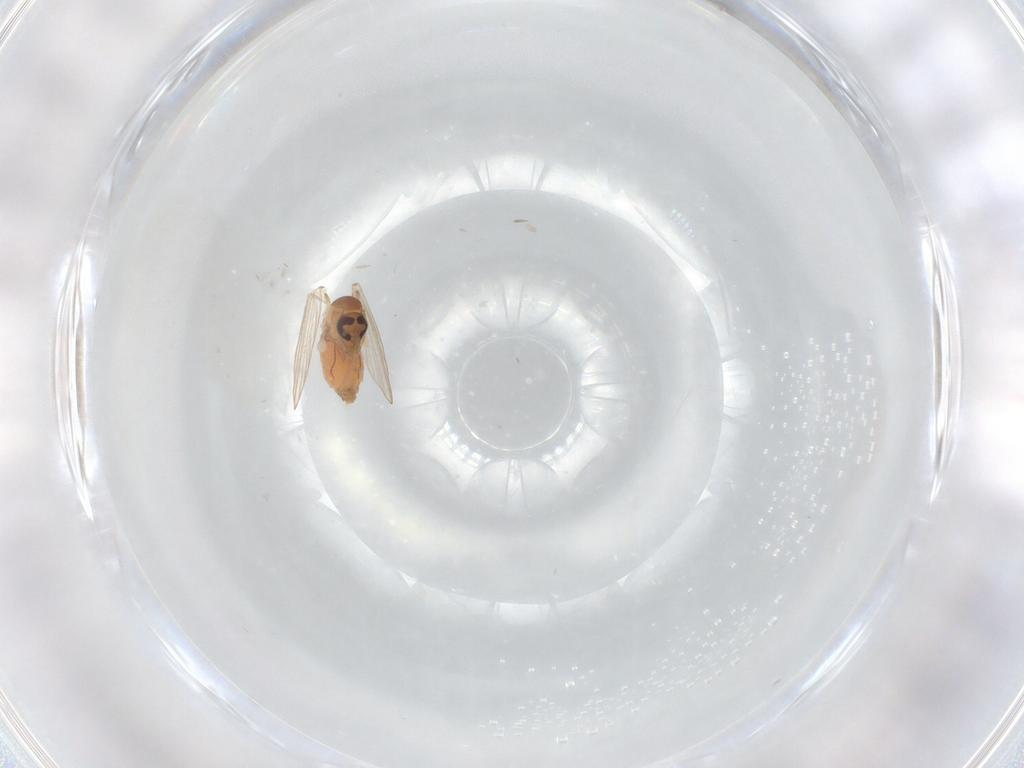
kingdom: Animalia
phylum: Arthropoda
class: Insecta
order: Diptera
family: Psychodidae
